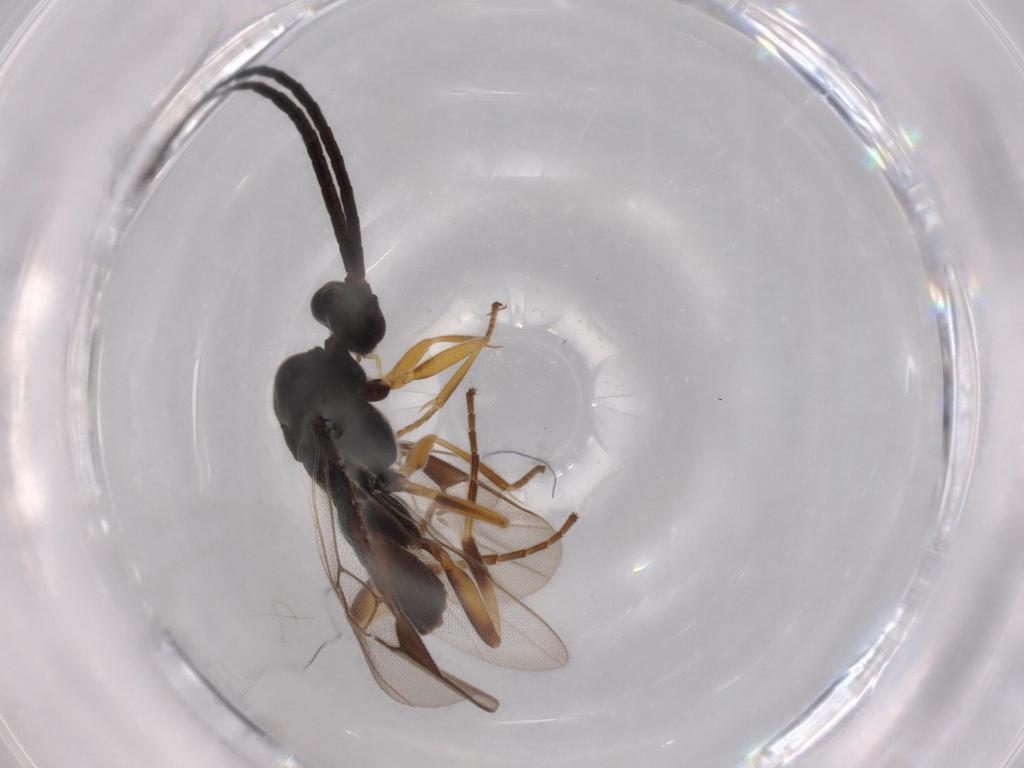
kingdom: Animalia
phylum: Arthropoda
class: Insecta
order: Hymenoptera
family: Braconidae
